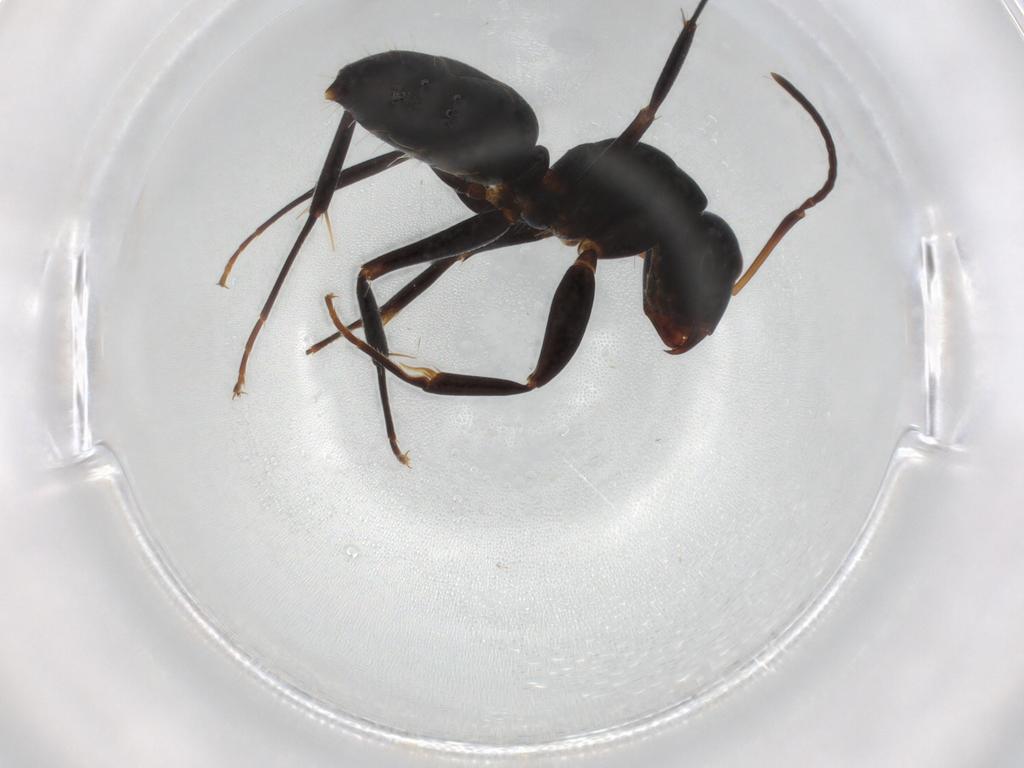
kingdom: Animalia
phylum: Arthropoda
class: Insecta
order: Hymenoptera
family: Formicidae
